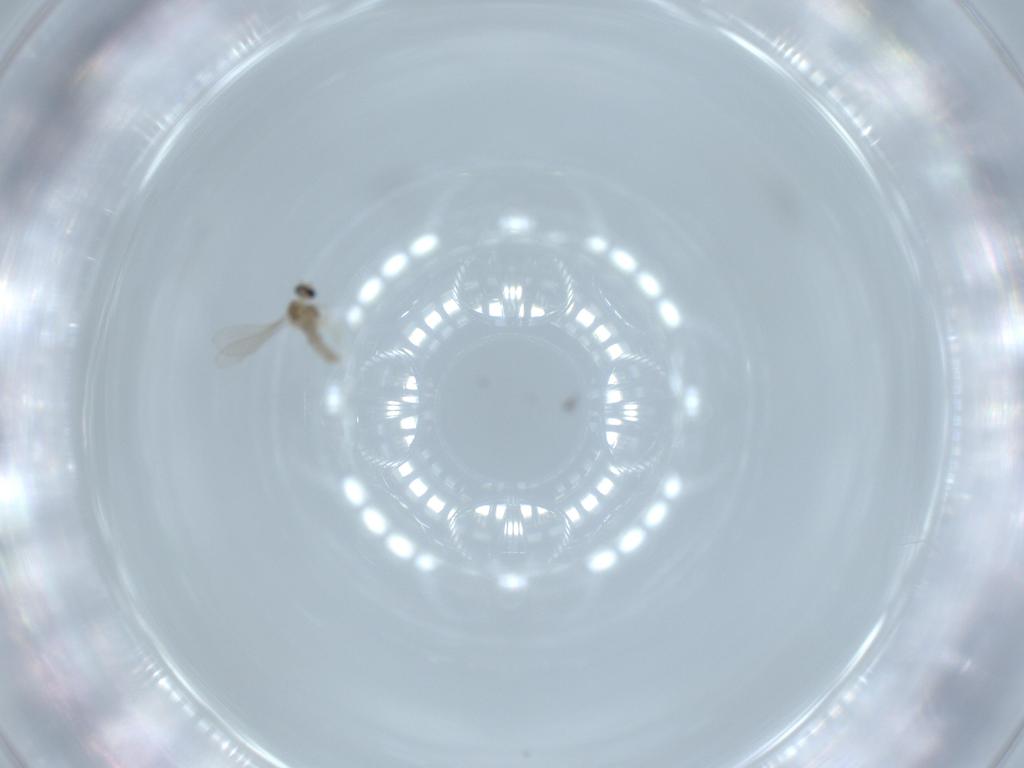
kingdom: Animalia
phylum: Arthropoda
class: Insecta
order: Diptera
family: Cecidomyiidae
